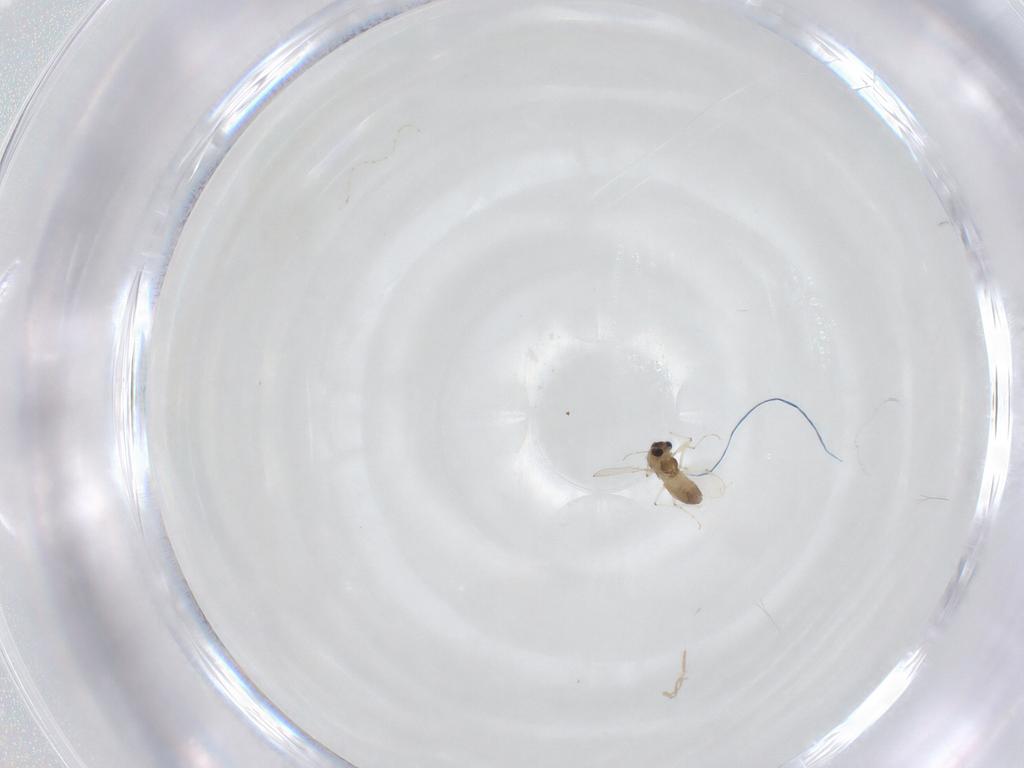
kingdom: Animalia
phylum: Arthropoda
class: Insecta
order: Diptera
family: Chironomidae
